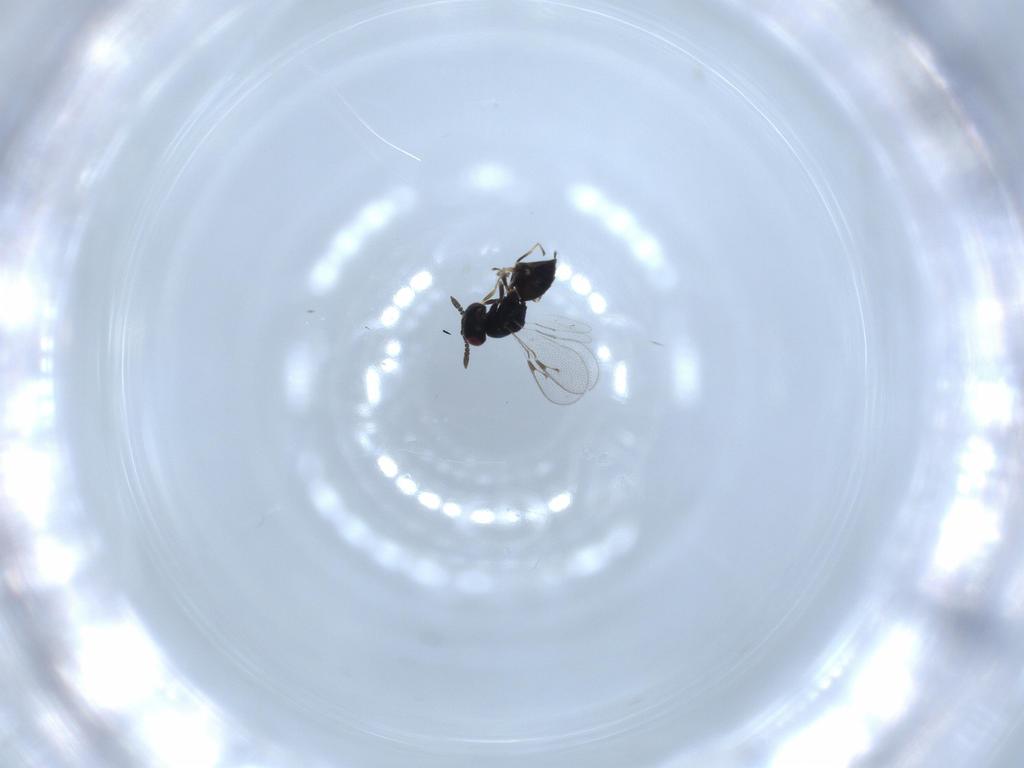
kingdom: Animalia
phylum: Arthropoda
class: Insecta
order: Hymenoptera
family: Pteromalidae
